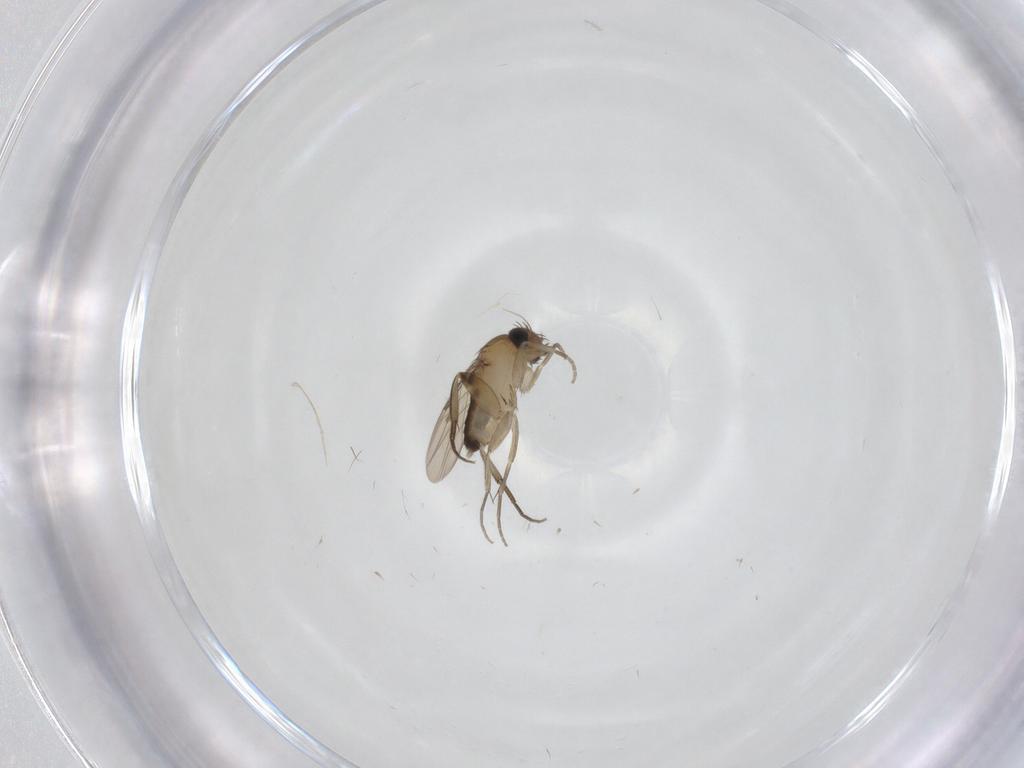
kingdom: Animalia
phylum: Arthropoda
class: Insecta
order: Diptera
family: Phoridae
